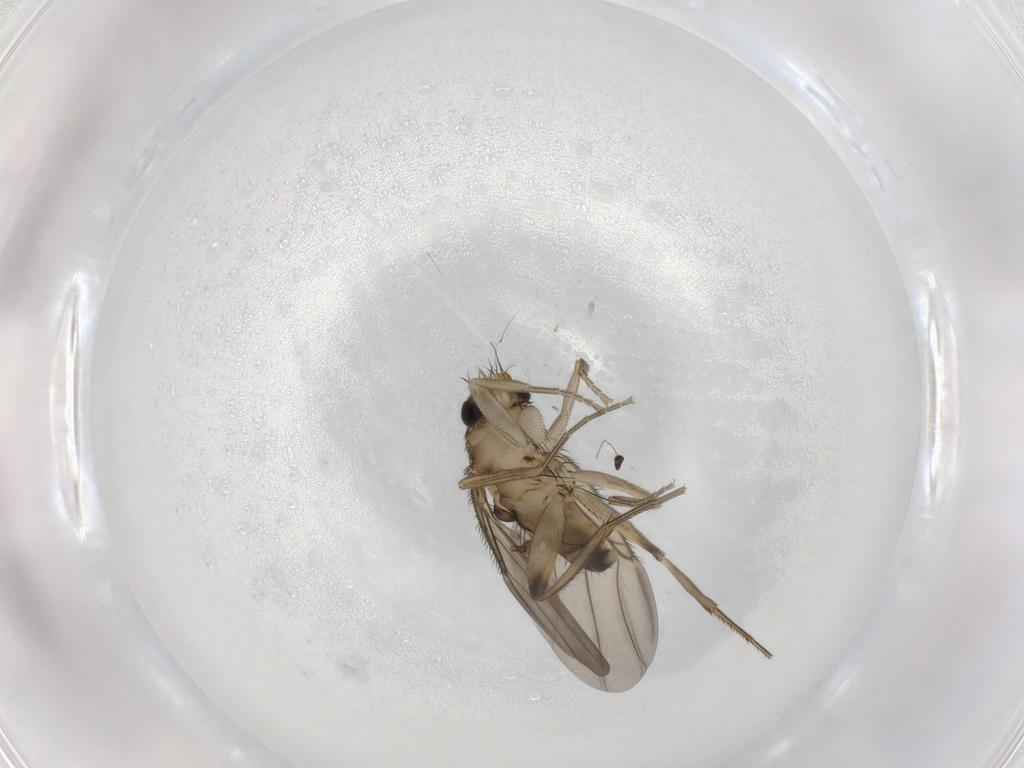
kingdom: Animalia
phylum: Arthropoda
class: Insecta
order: Diptera
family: Phoridae
